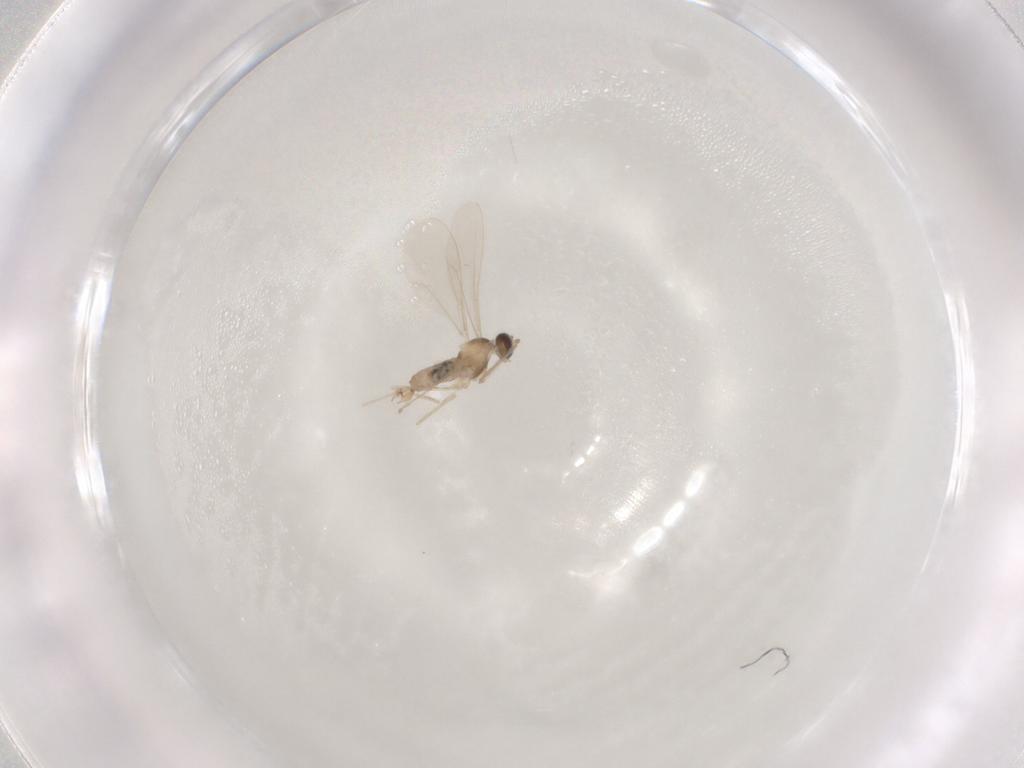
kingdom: Animalia
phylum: Arthropoda
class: Insecta
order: Diptera
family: Cecidomyiidae
